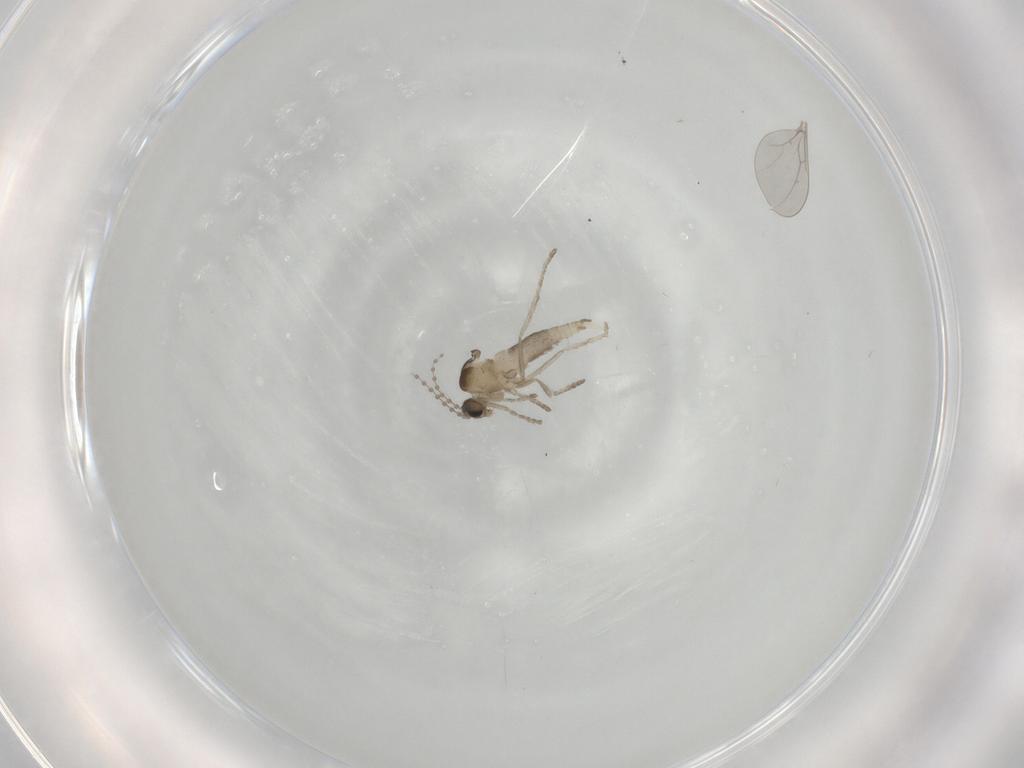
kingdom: Animalia
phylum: Arthropoda
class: Insecta
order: Diptera
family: Cecidomyiidae
